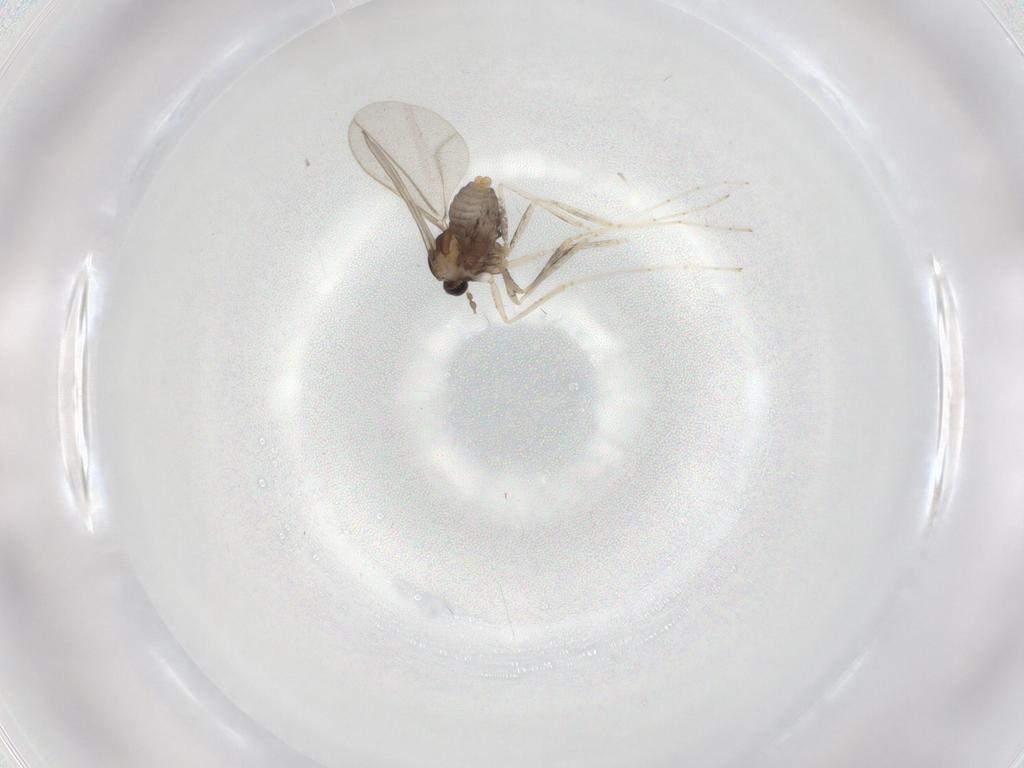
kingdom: Animalia
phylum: Arthropoda
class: Insecta
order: Diptera
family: Cecidomyiidae
